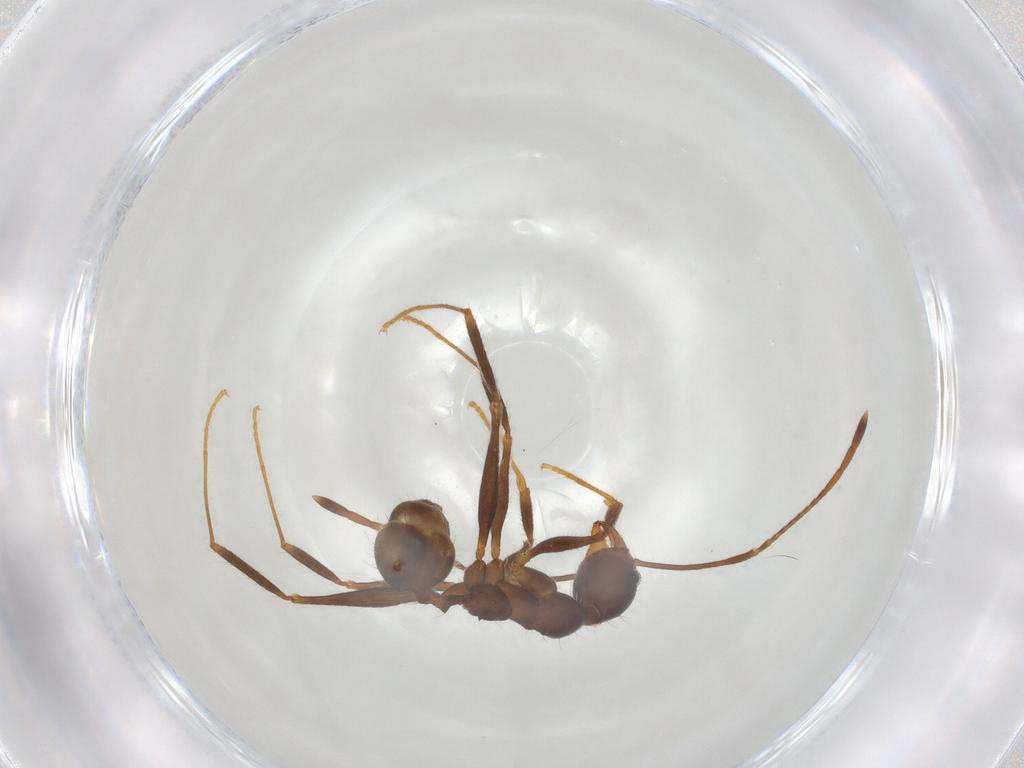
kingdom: Animalia
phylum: Arthropoda
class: Insecta
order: Hymenoptera
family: Formicidae
